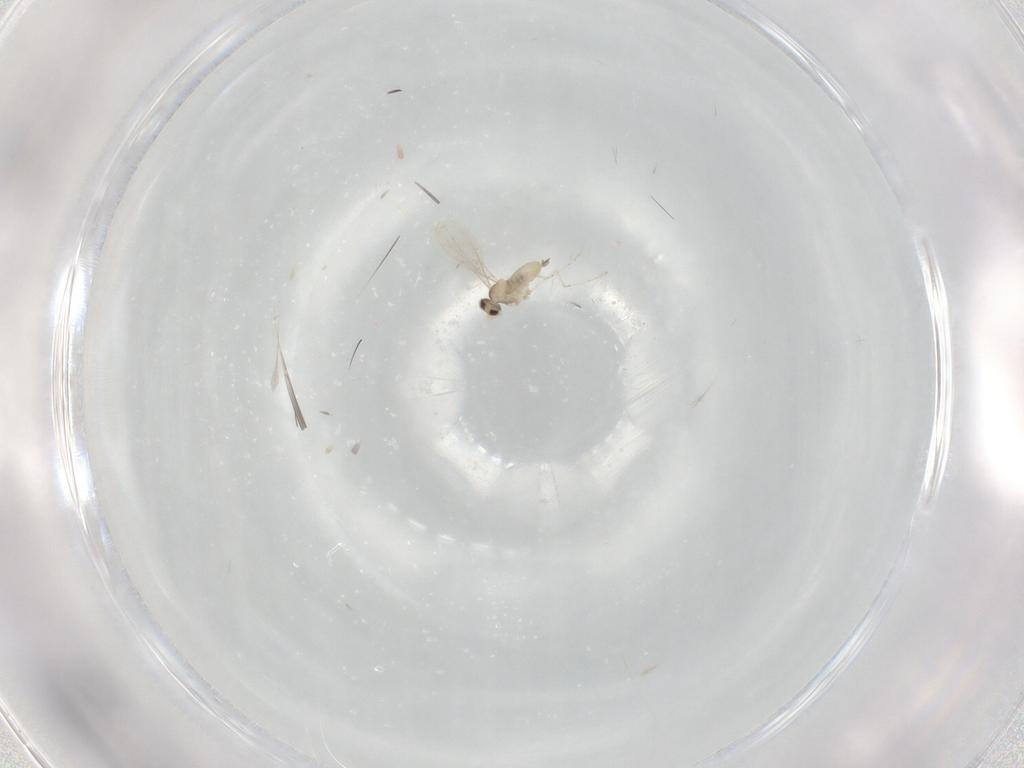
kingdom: Animalia
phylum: Arthropoda
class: Insecta
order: Diptera
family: Cecidomyiidae
